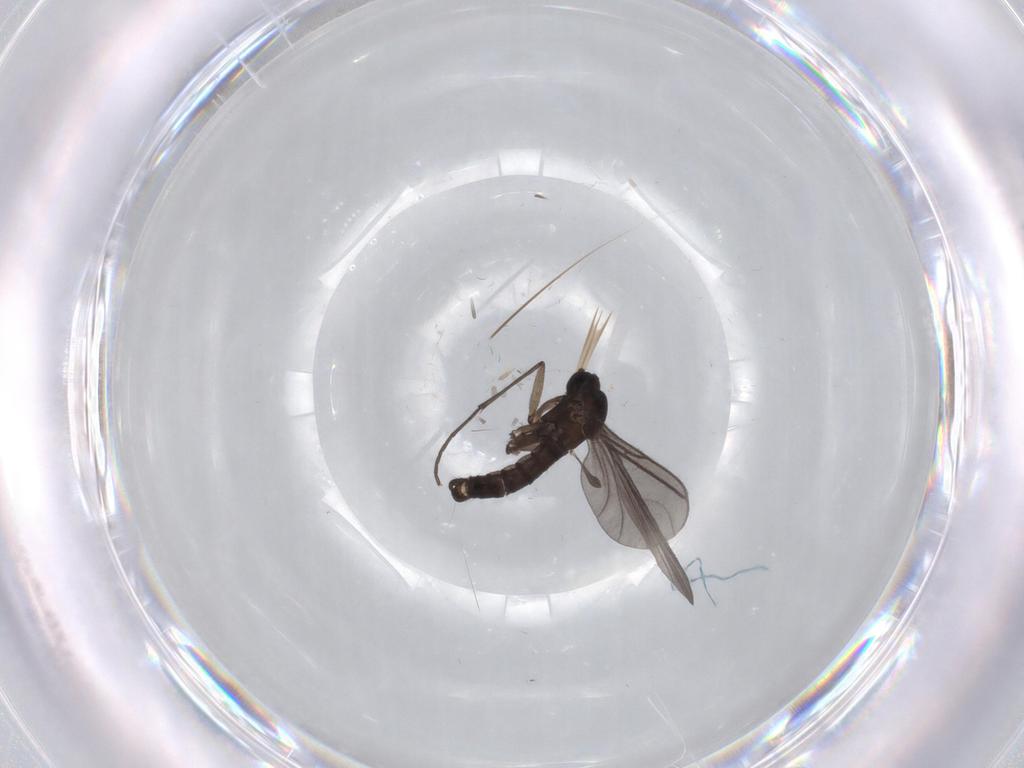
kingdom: Animalia
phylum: Arthropoda
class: Insecta
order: Diptera
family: Sciaridae
